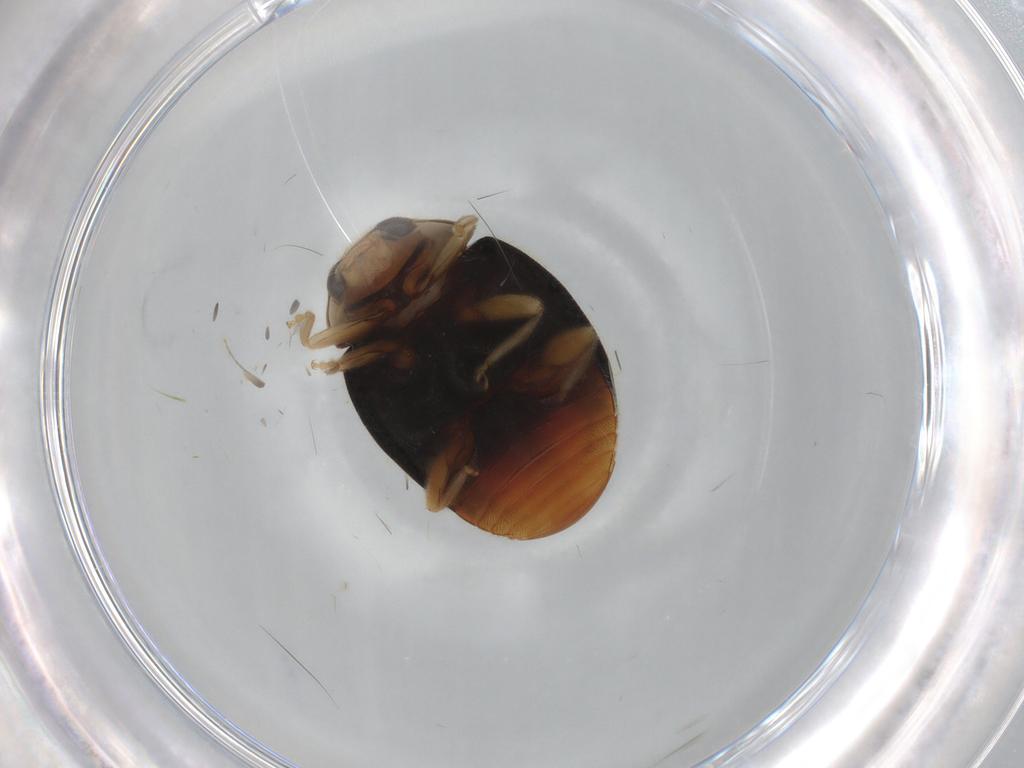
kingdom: Animalia
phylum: Arthropoda
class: Insecta
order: Coleoptera
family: Coccinellidae
